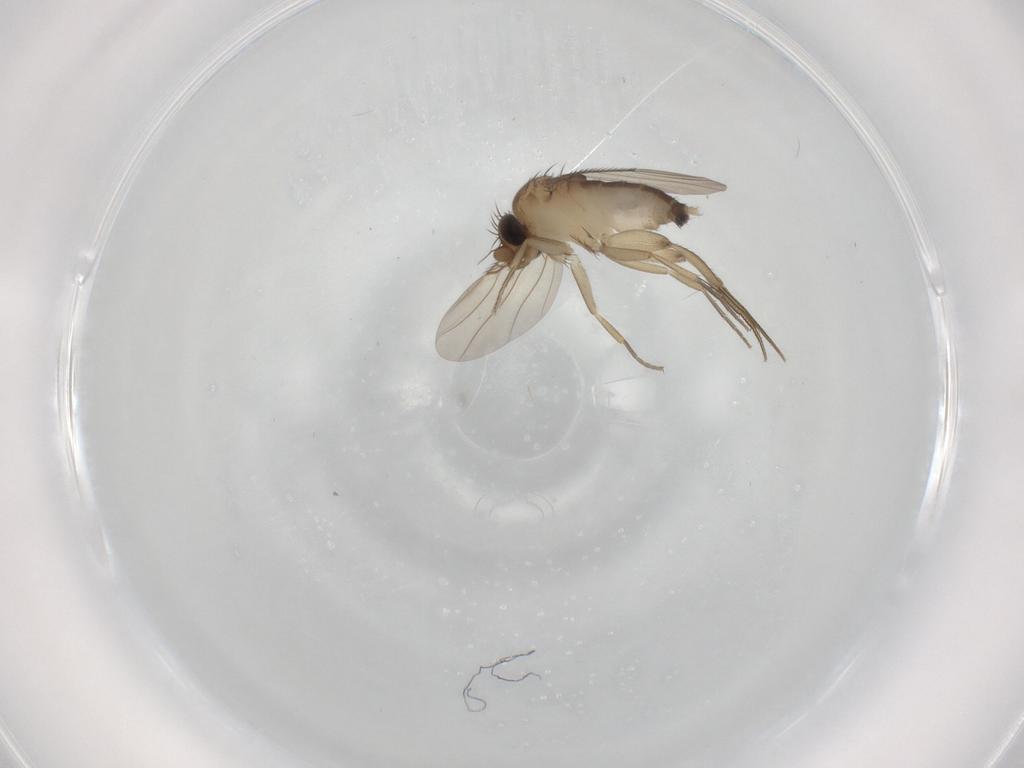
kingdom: Animalia
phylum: Arthropoda
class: Insecta
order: Diptera
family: Phoridae
